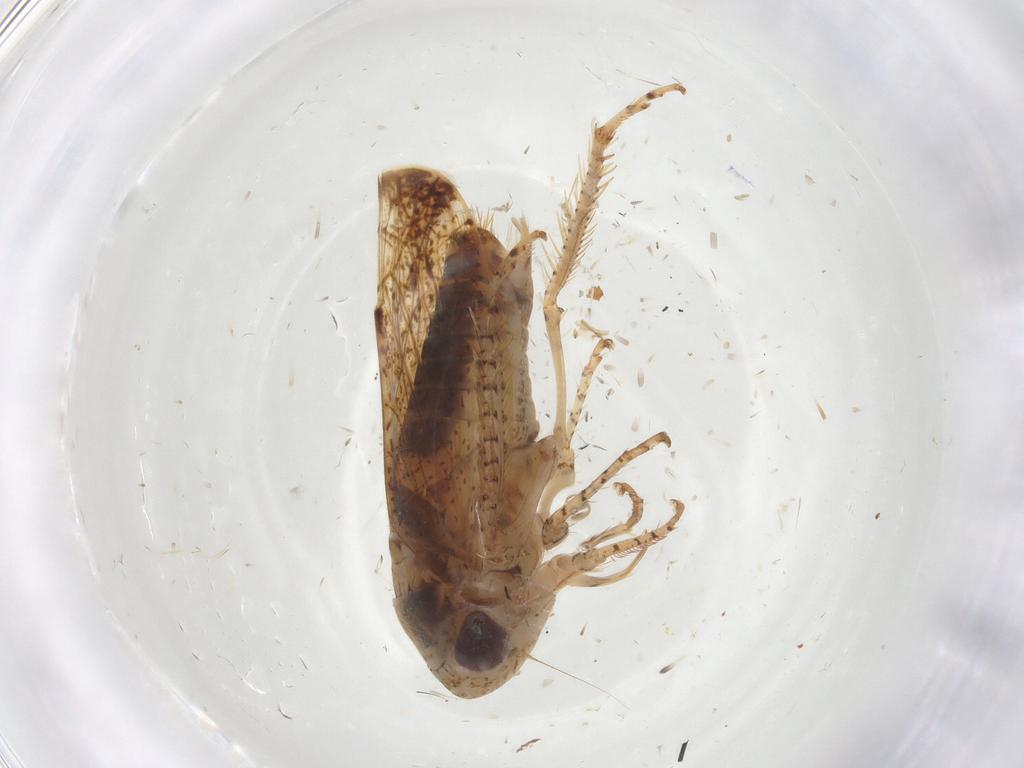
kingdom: Animalia
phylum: Arthropoda
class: Insecta
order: Hemiptera
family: Cicadellidae
